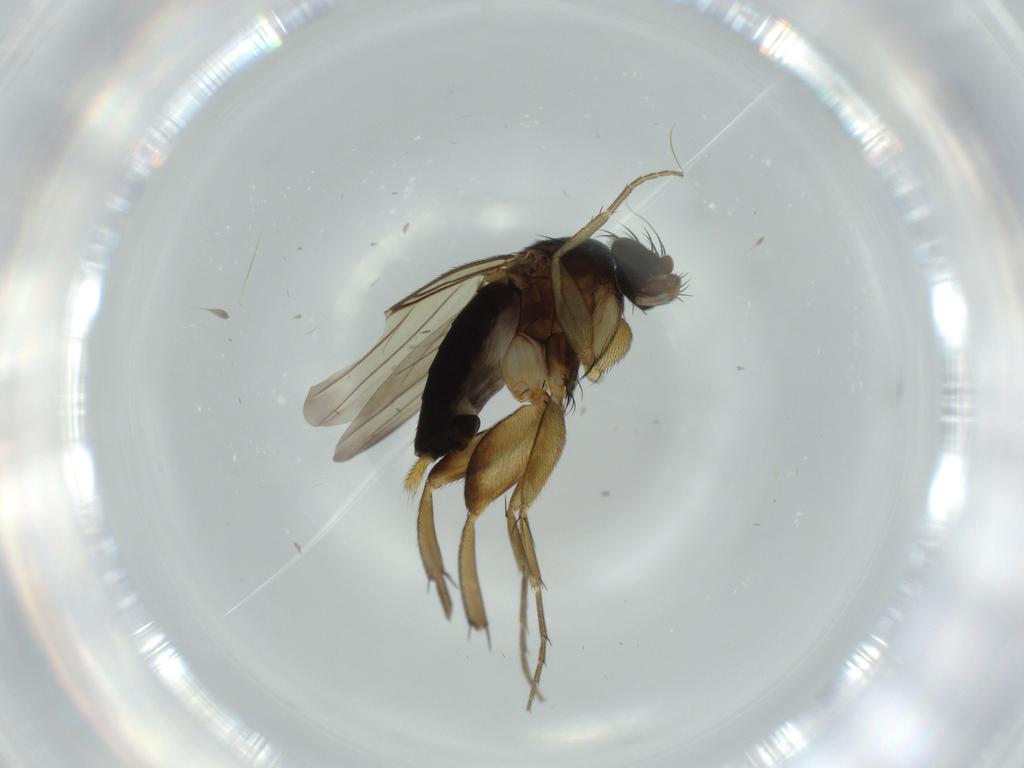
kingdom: Animalia
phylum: Arthropoda
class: Insecta
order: Diptera
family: Phoridae
